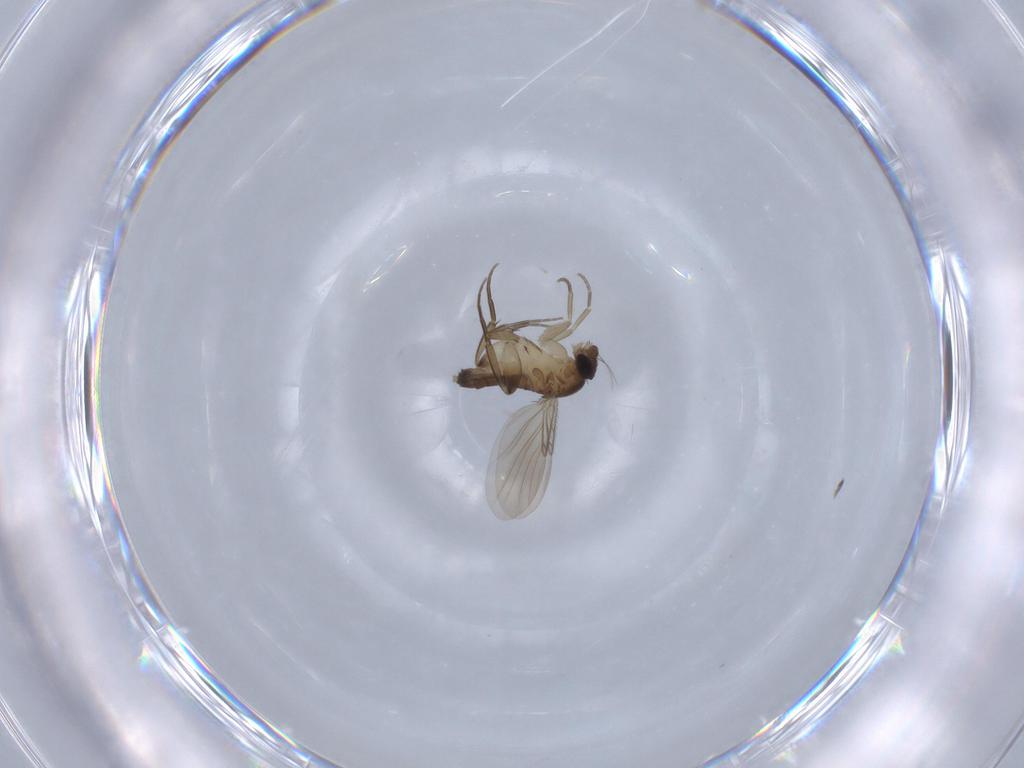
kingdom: Animalia
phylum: Arthropoda
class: Insecta
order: Diptera
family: Phoridae
